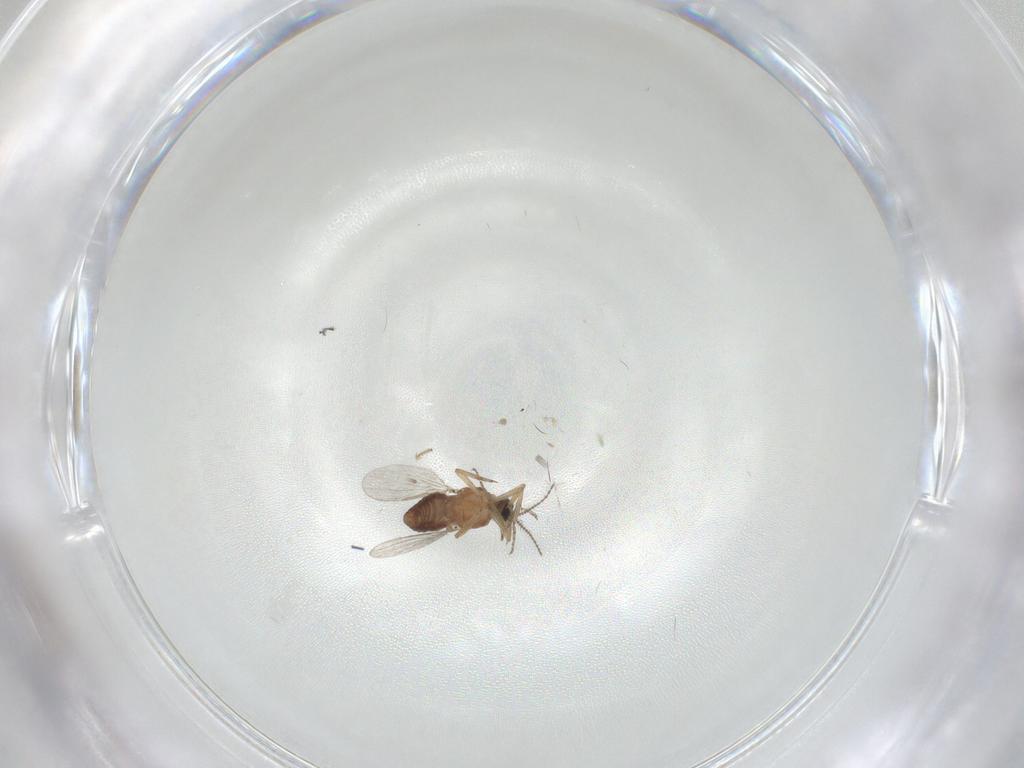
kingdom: Animalia
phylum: Arthropoda
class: Insecta
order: Diptera
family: Ceratopogonidae
